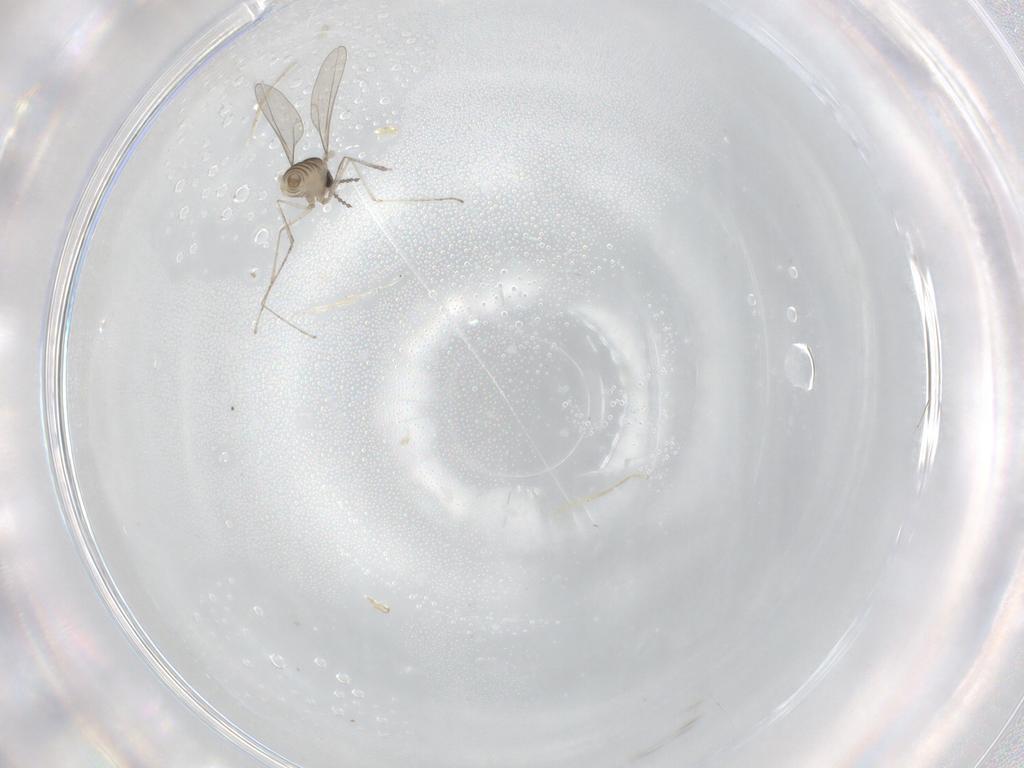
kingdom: Animalia
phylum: Arthropoda
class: Insecta
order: Diptera
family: Cecidomyiidae
